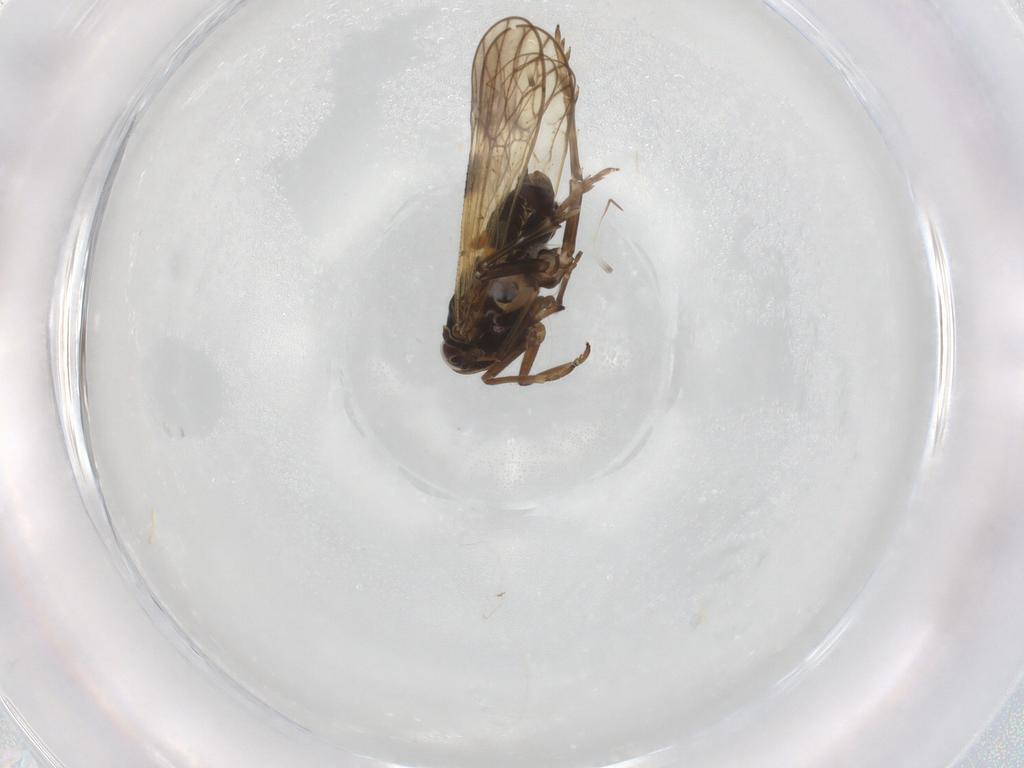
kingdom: Animalia
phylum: Arthropoda
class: Insecta
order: Hemiptera
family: Delphacidae
